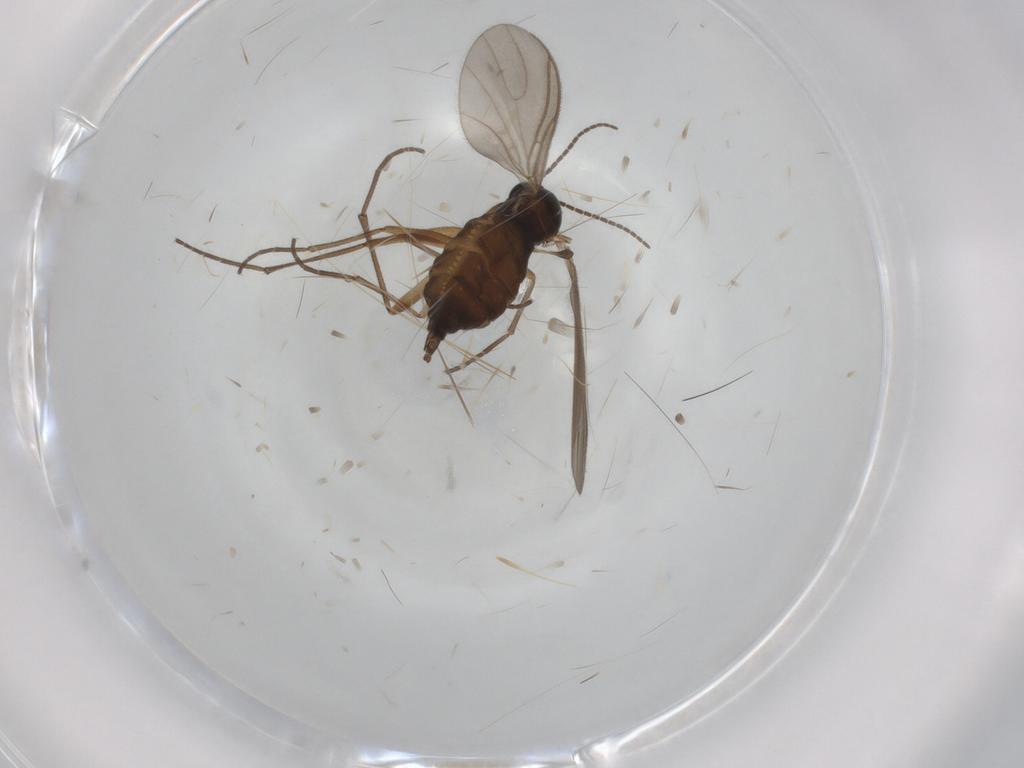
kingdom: Animalia
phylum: Arthropoda
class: Insecta
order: Diptera
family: Sciaridae
